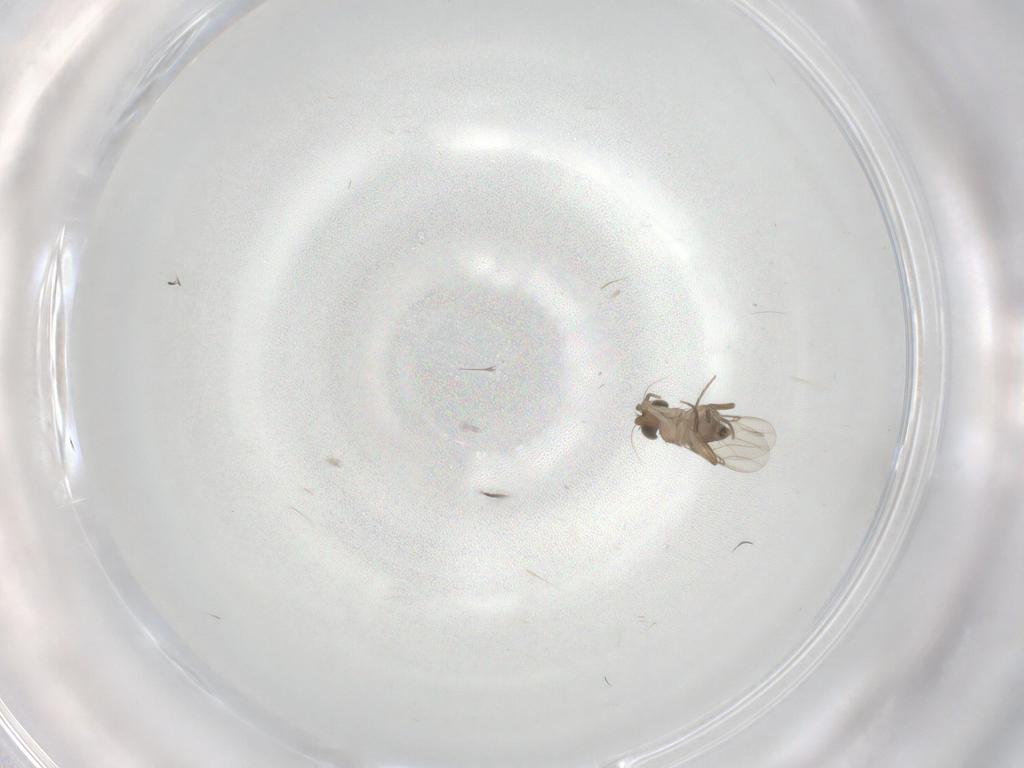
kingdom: Animalia
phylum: Arthropoda
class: Insecta
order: Diptera
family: Phoridae
